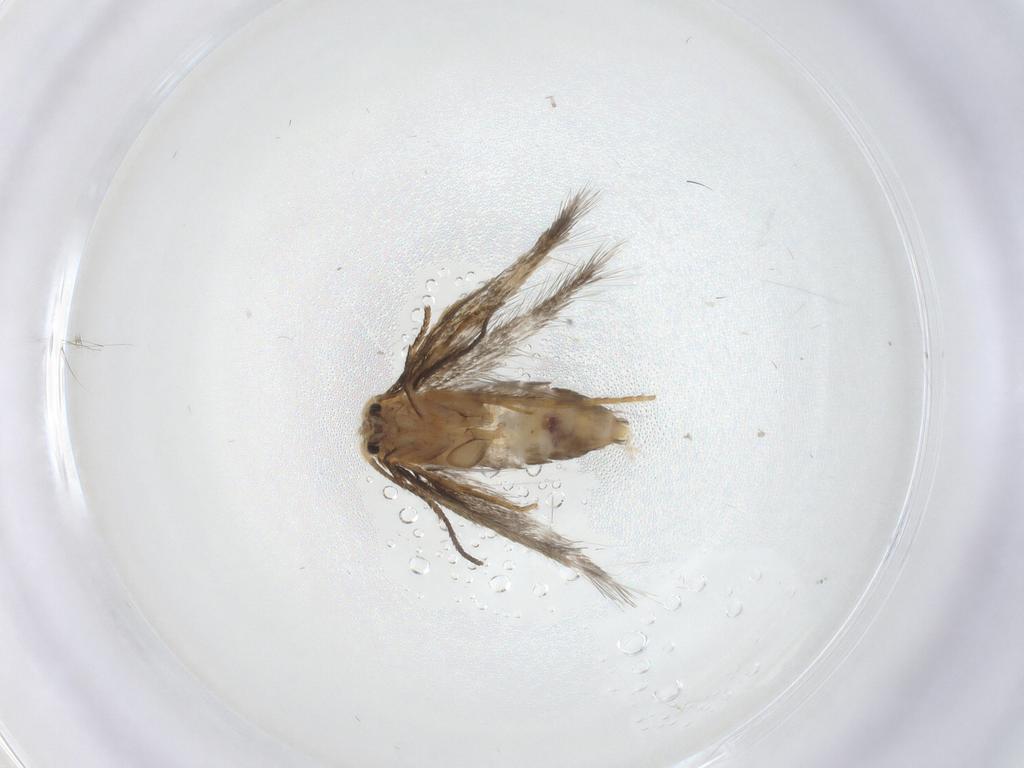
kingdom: Animalia
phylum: Arthropoda
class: Insecta
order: Lepidoptera
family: Nepticulidae
